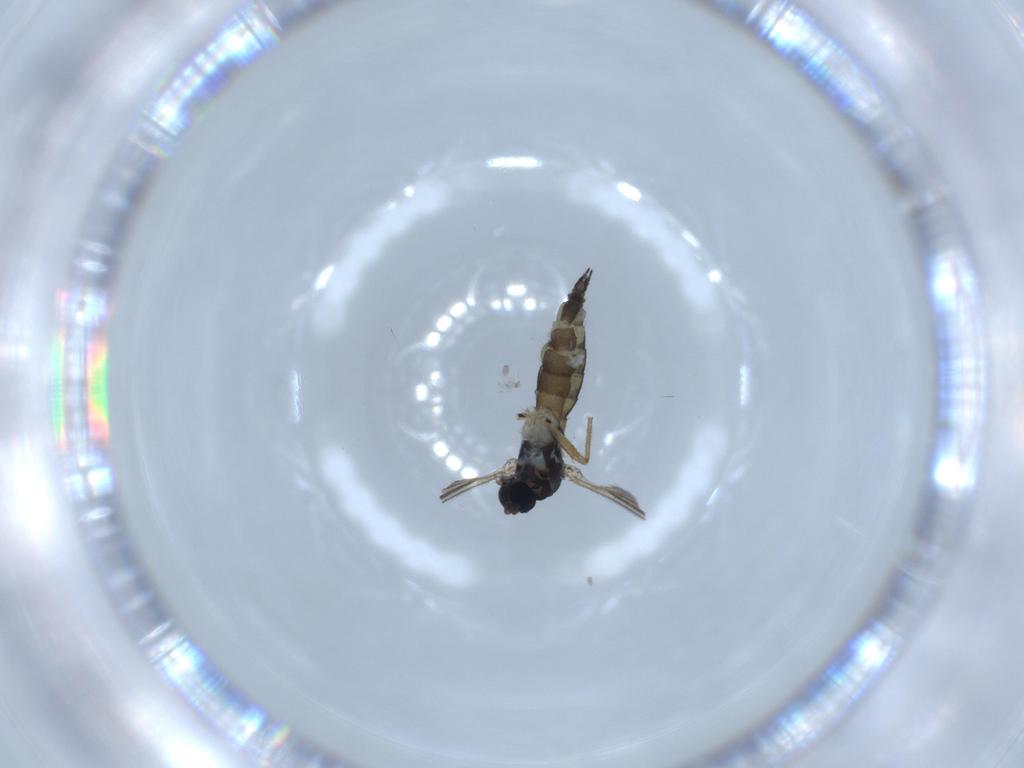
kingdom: Animalia
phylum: Arthropoda
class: Insecta
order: Diptera
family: Sciaridae
